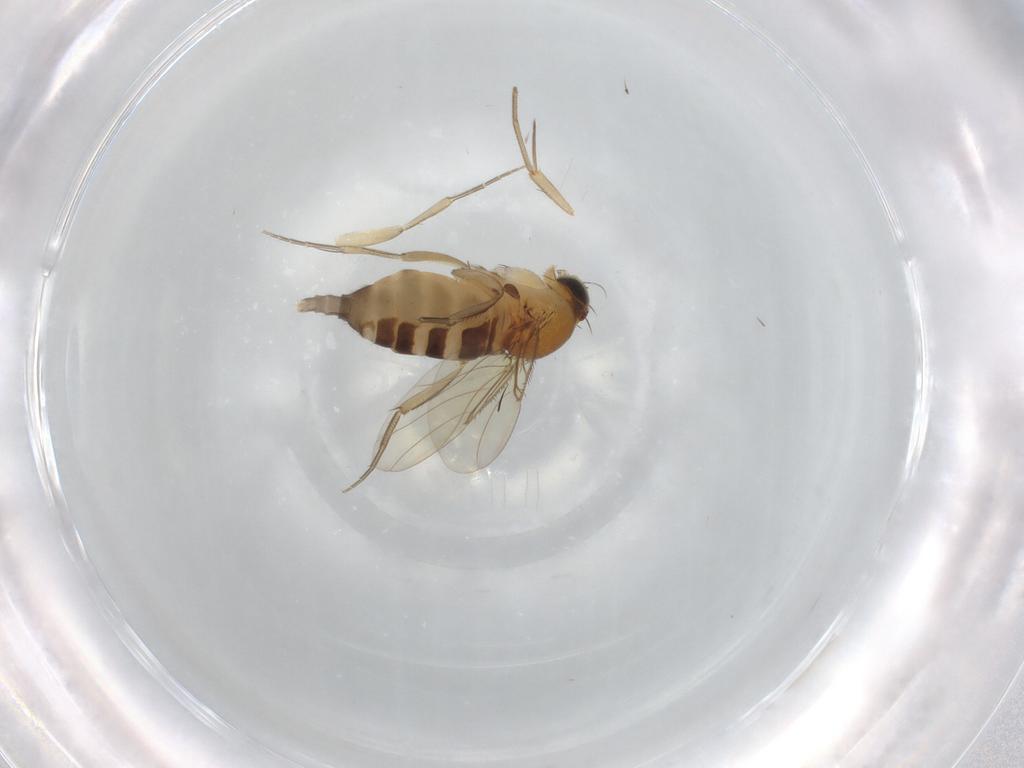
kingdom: Animalia
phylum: Arthropoda
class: Insecta
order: Diptera
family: Phoridae
